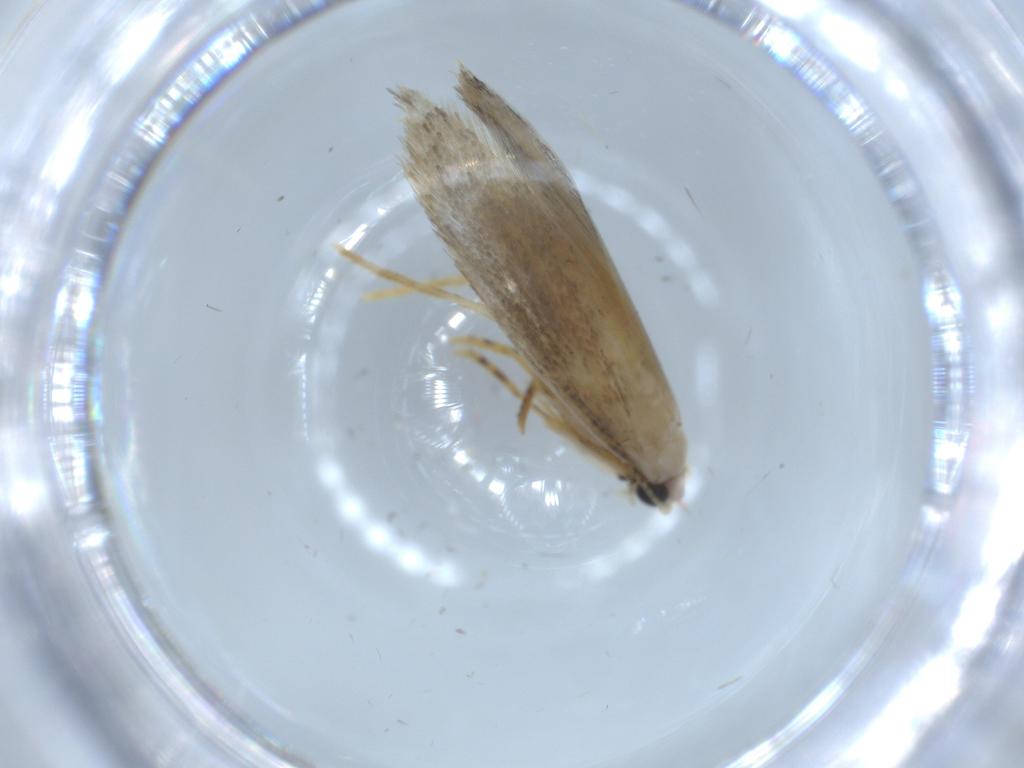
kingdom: Animalia
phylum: Arthropoda
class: Insecta
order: Lepidoptera
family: Tineidae
